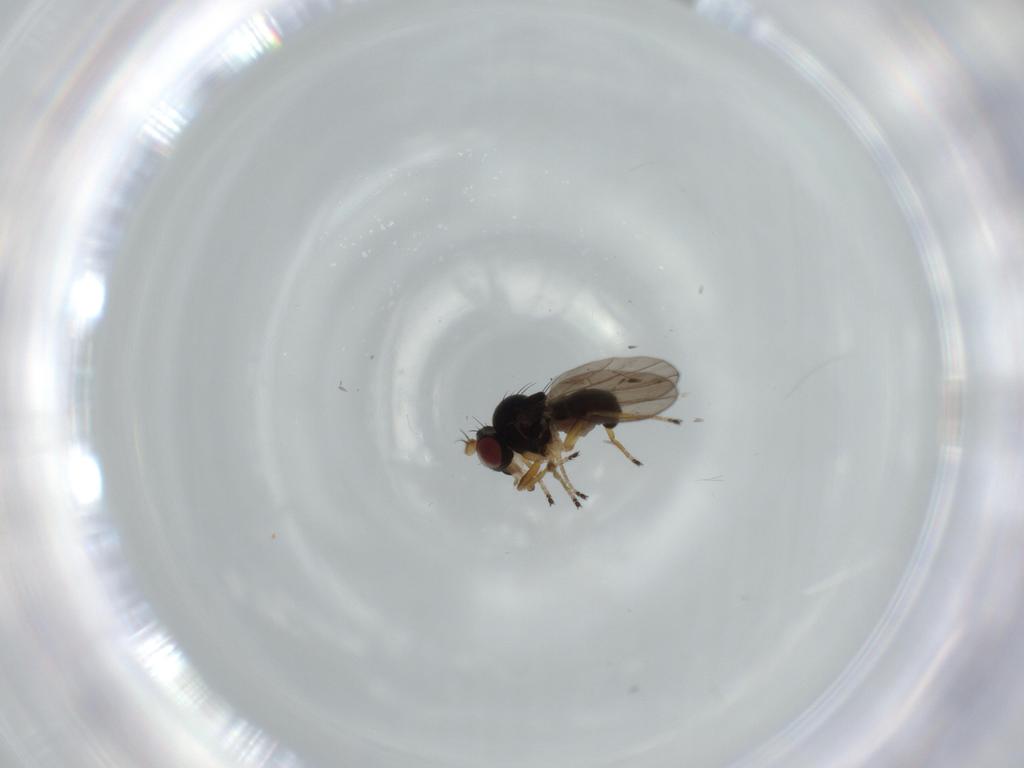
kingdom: Animalia
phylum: Arthropoda
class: Insecta
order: Diptera
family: Ephydridae
